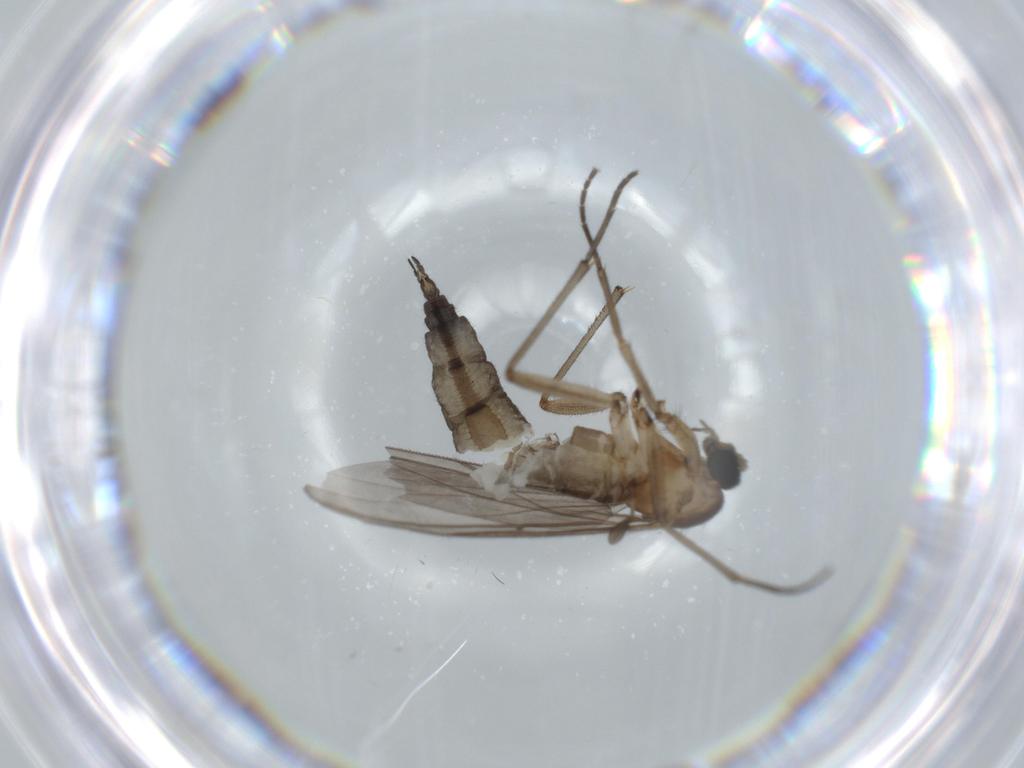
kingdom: Animalia
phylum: Arthropoda
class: Insecta
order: Diptera
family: Sciaridae
